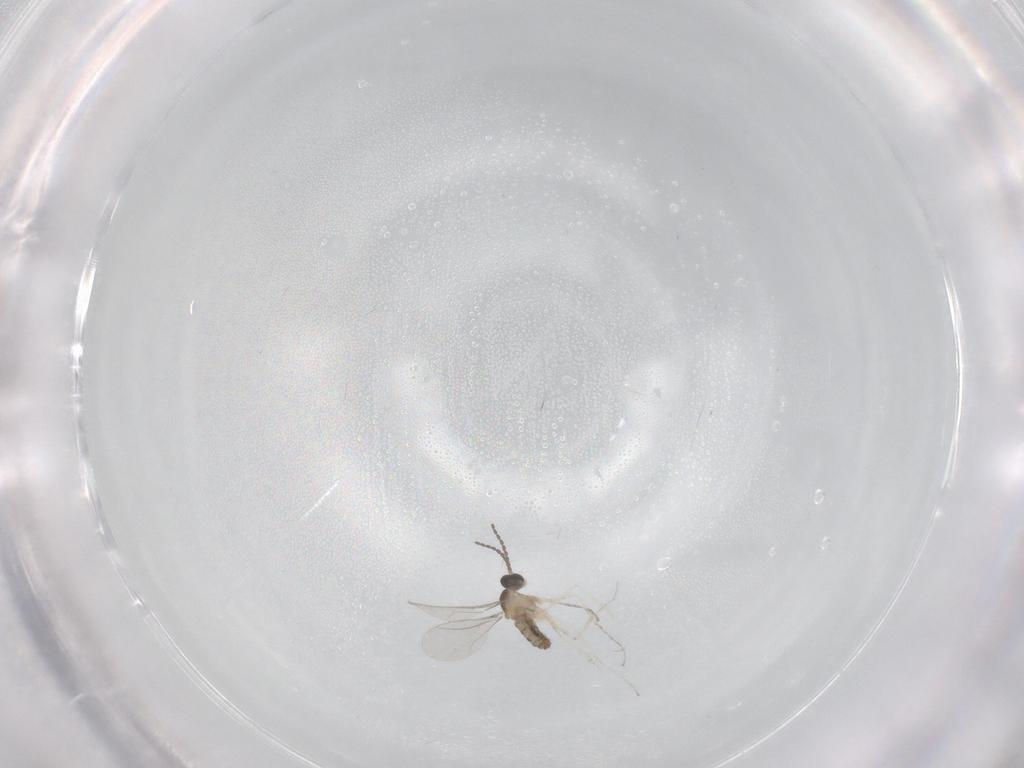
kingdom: Animalia
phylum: Arthropoda
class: Insecta
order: Diptera
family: Cecidomyiidae
